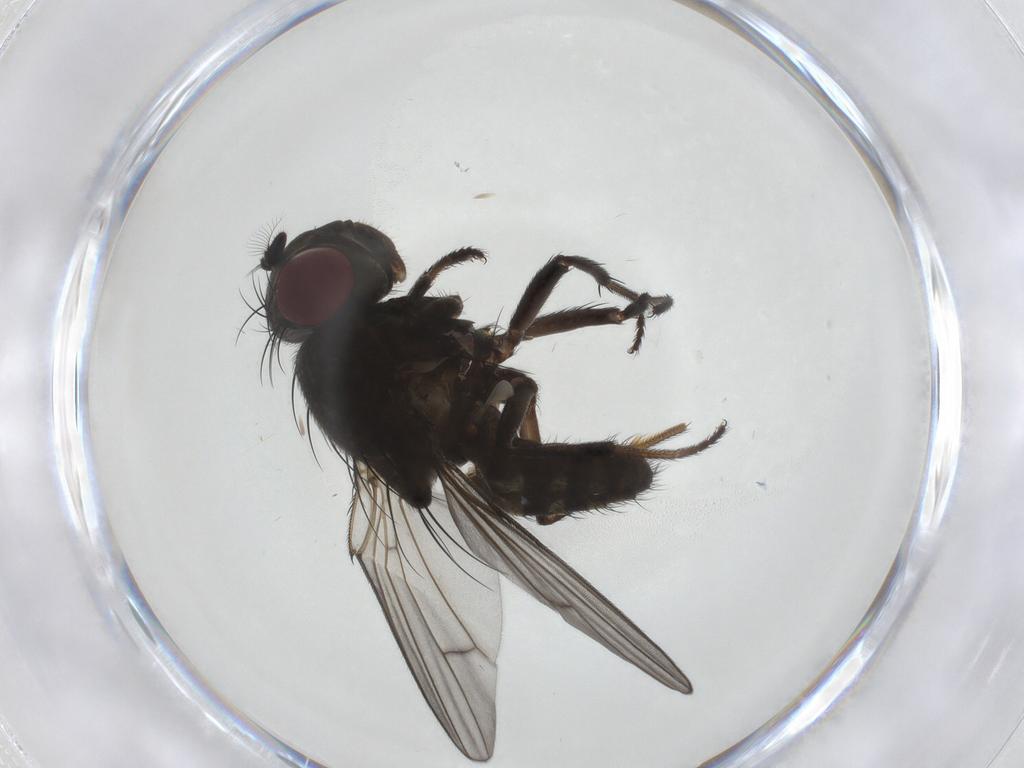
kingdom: Animalia
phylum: Arthropoda
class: Insecta
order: Diptera
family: Ephydridae
